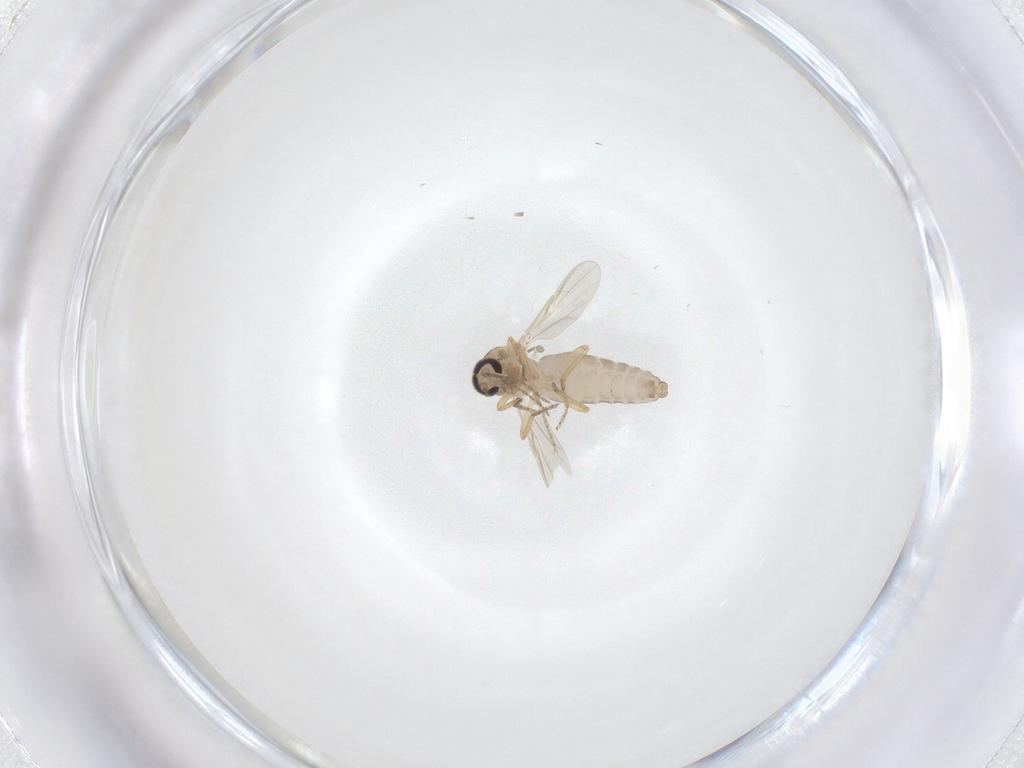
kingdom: Animalia
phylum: Arthropoda
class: Insecta
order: Diptera
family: Ceratopogonidae
